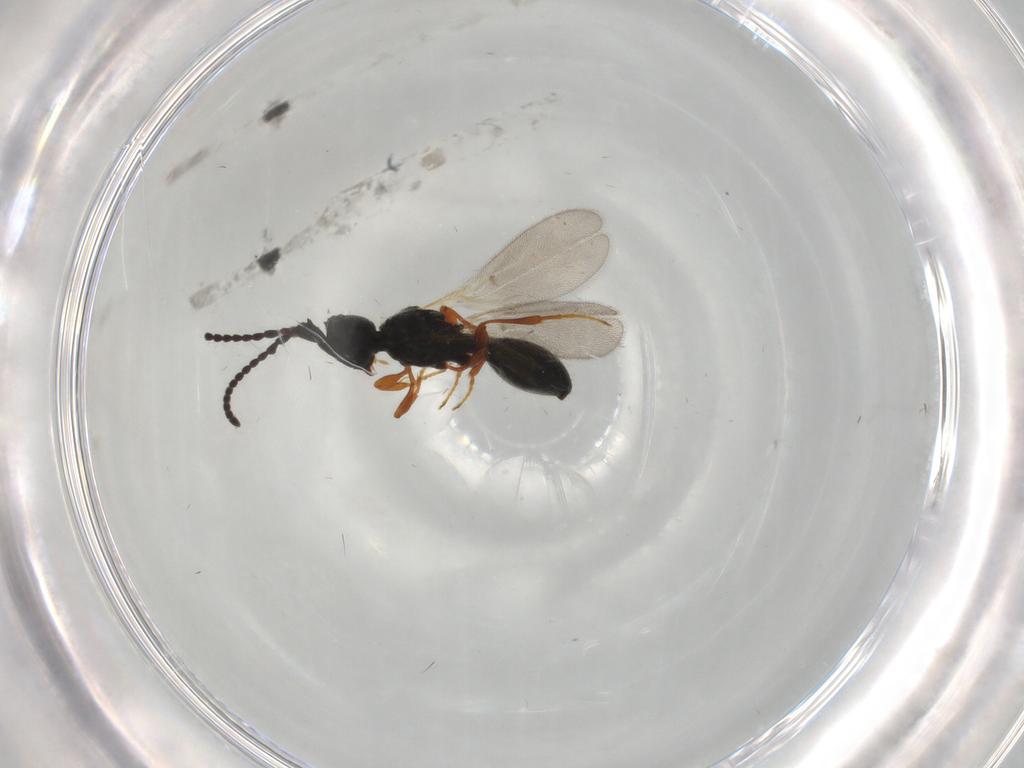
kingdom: Animalia
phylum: Arthropoda
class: Insecta
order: Hymenoptera
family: Diapriidae
